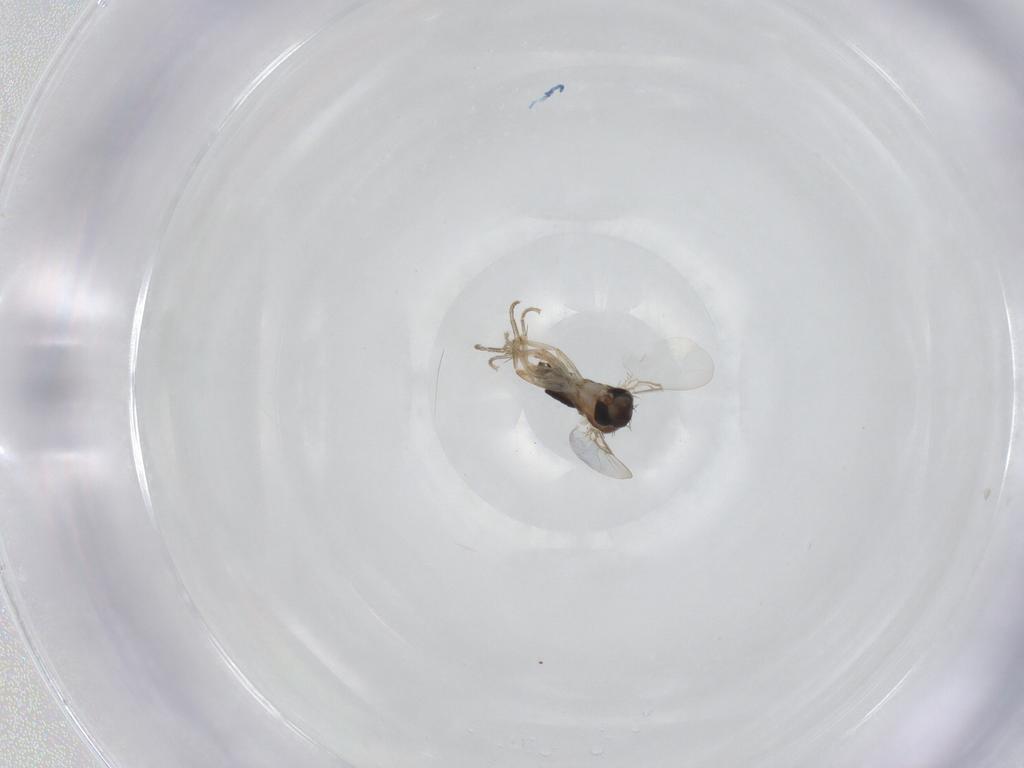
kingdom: Animalia
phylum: Arthropoda
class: Insecta
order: Diptera
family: Phoridae
